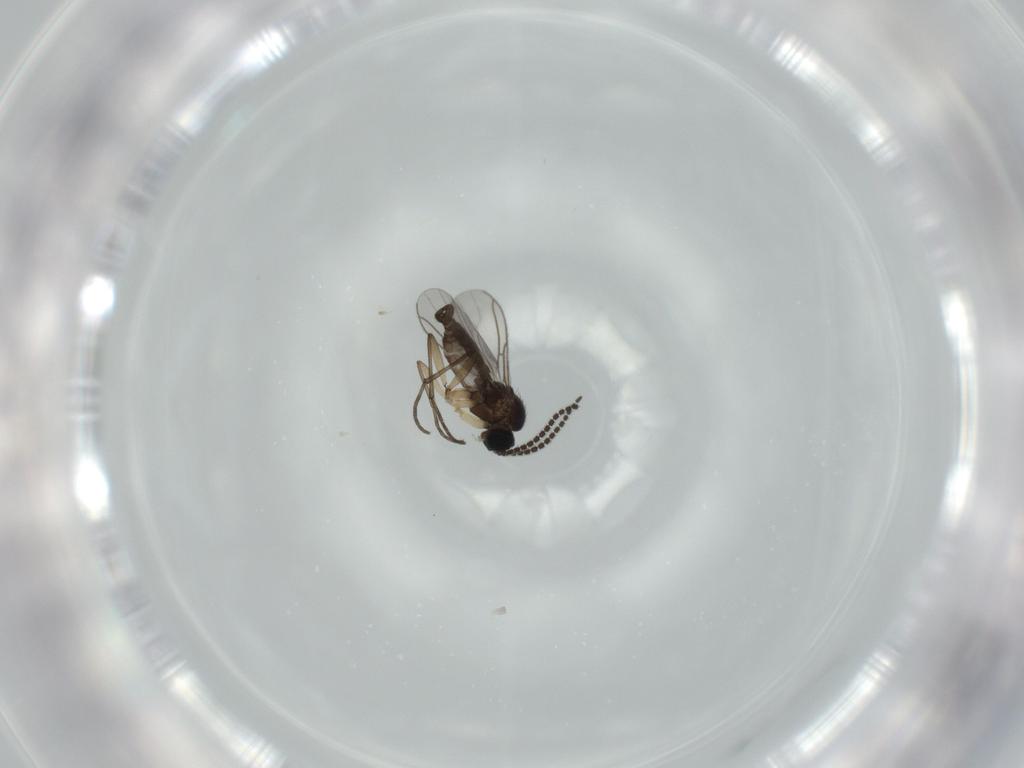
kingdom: Animalia
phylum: Arthropoda
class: Insecta
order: Diptera
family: Sciaridae
